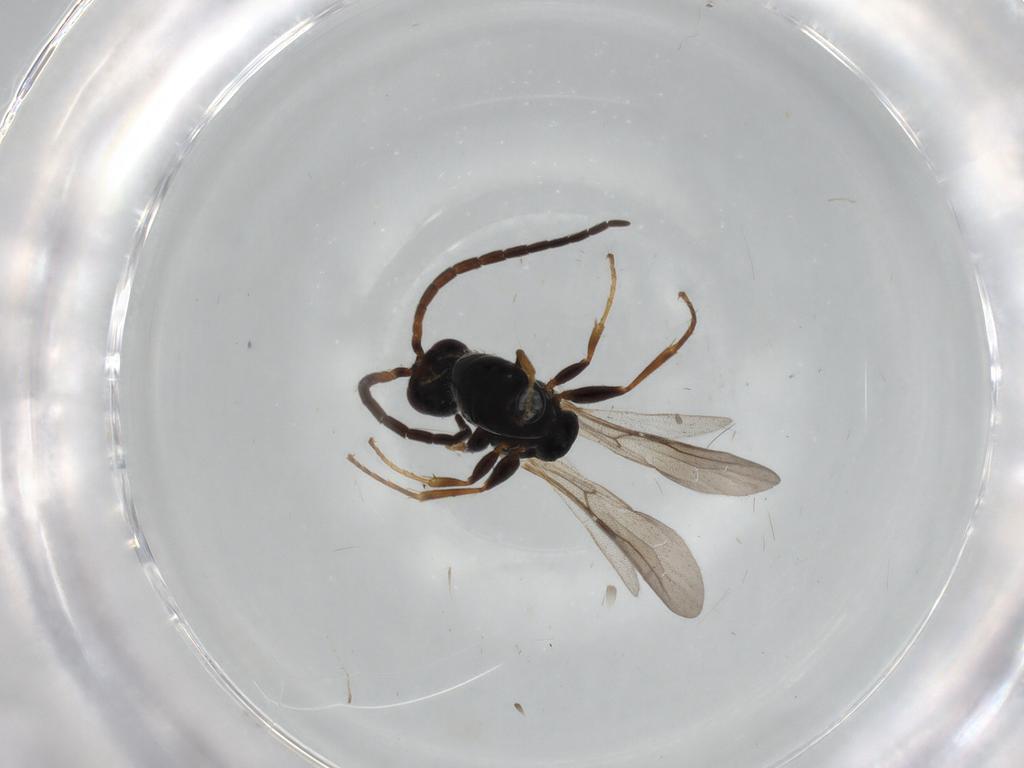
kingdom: Animalia
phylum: Arthropoda
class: Insecta
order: Hymenoptera
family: Bethylidae
